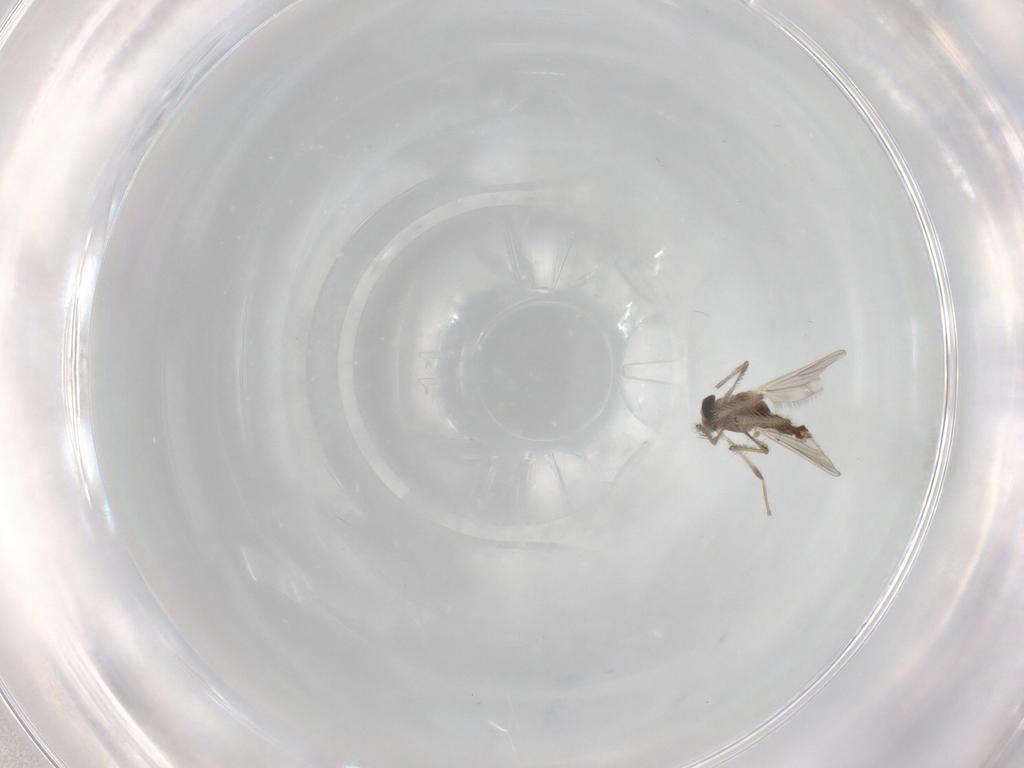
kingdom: Animalia
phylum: Arthropoda
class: Insecta
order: Diptera
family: Chironomidae
